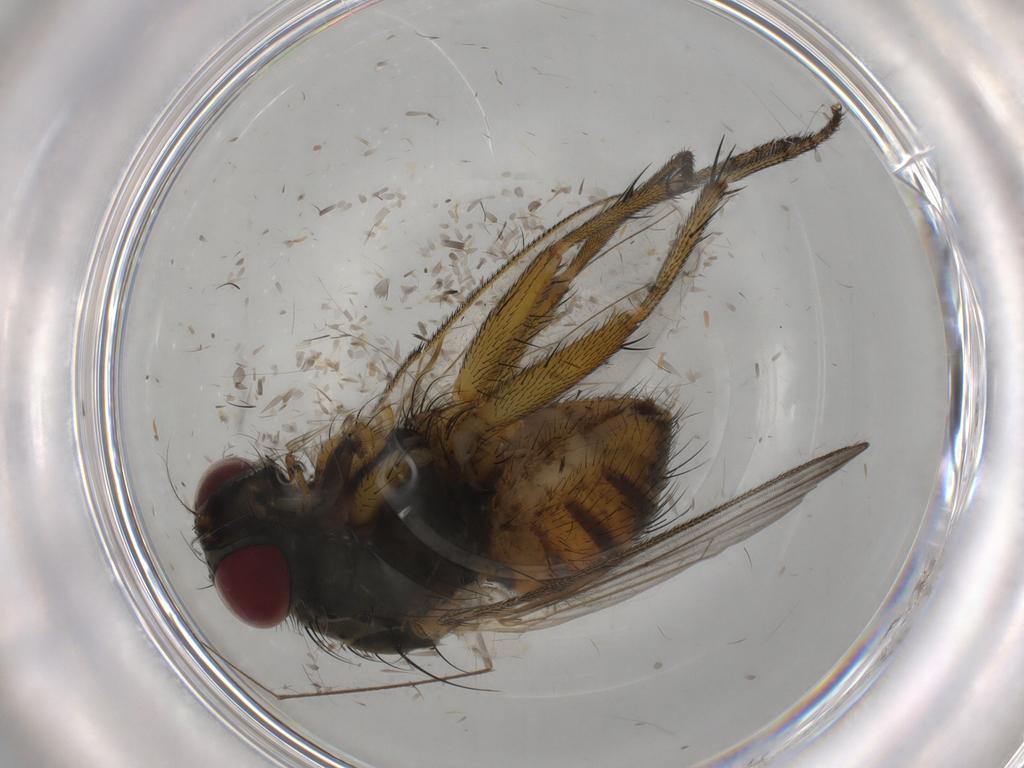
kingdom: Animalia
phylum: Arthropoda
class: Insecta
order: Diptera
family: Muscidae
